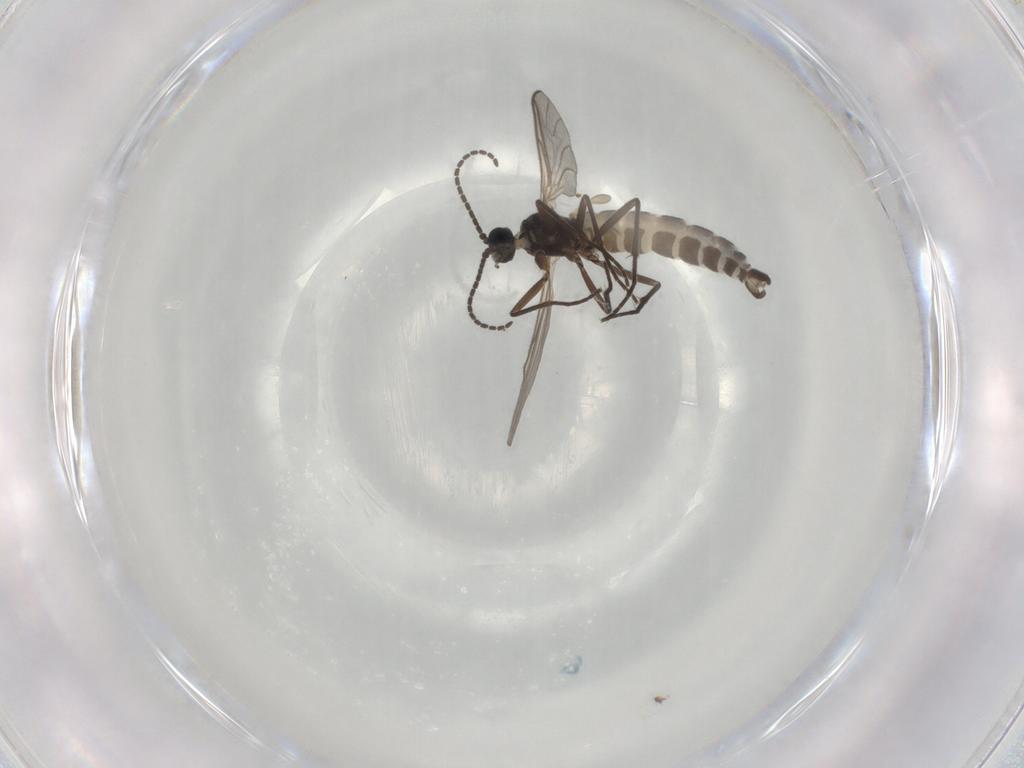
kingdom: Animalia
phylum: Arthropoda
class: Insecta
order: Diptera
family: Sciaridae
